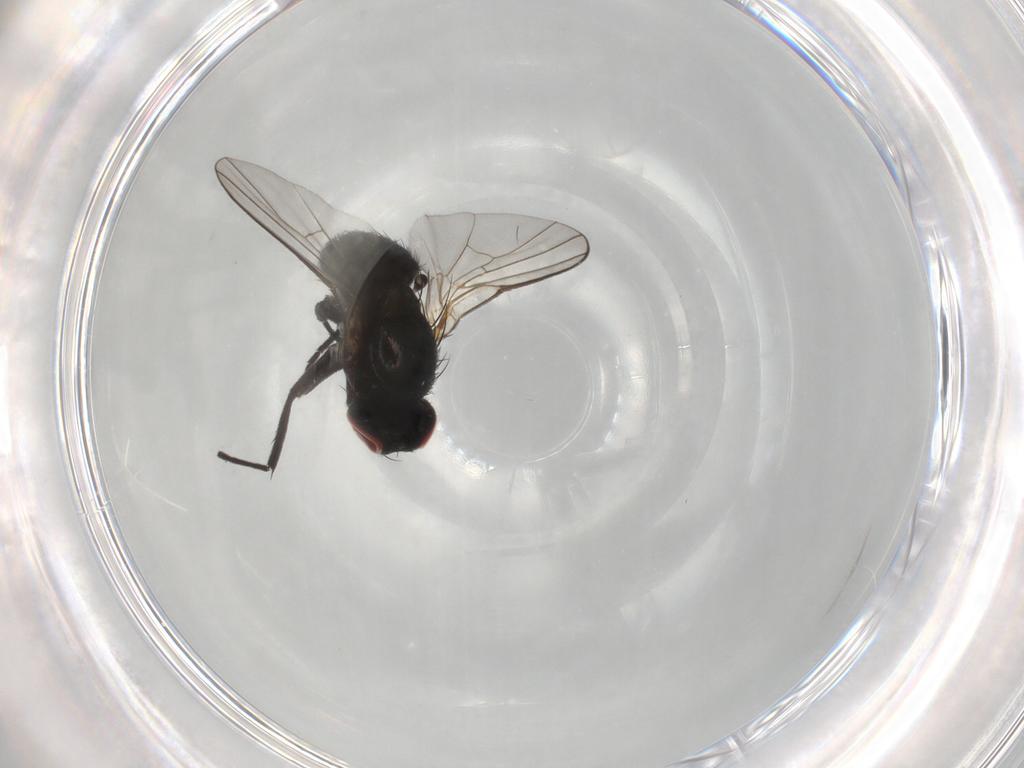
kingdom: Animalia
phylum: Arthropoda
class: Insecta
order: Diptera
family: Agromyzidae
